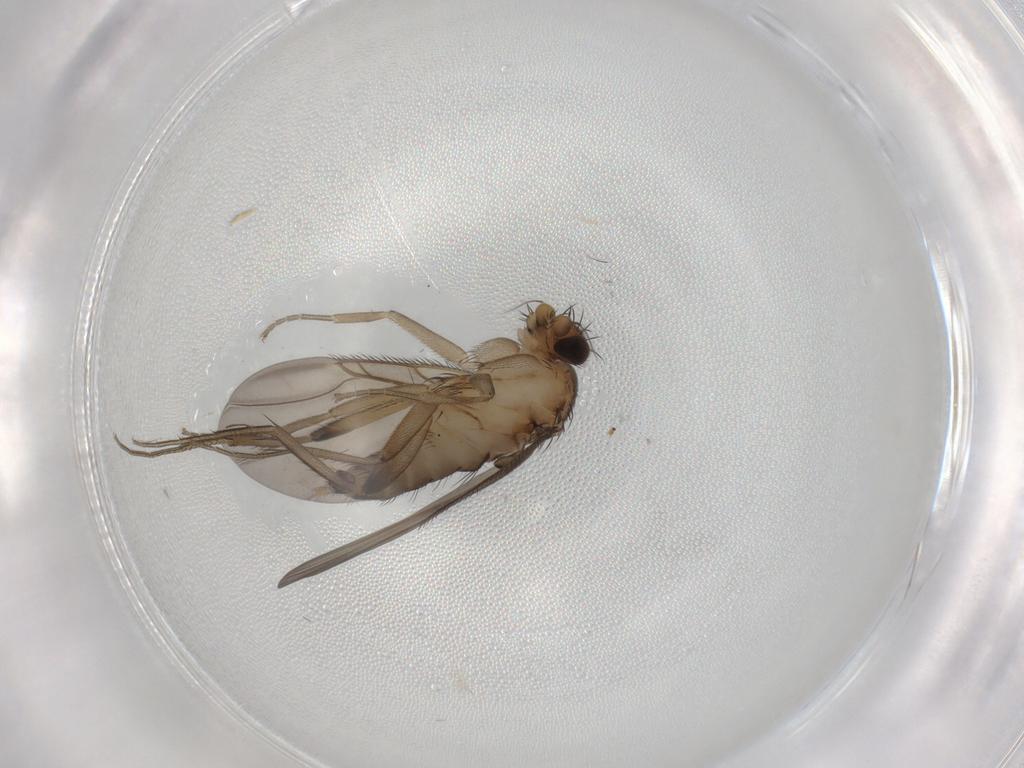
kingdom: Animalia
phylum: Arthropoda
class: Insecta
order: Diptera
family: Phoridae
